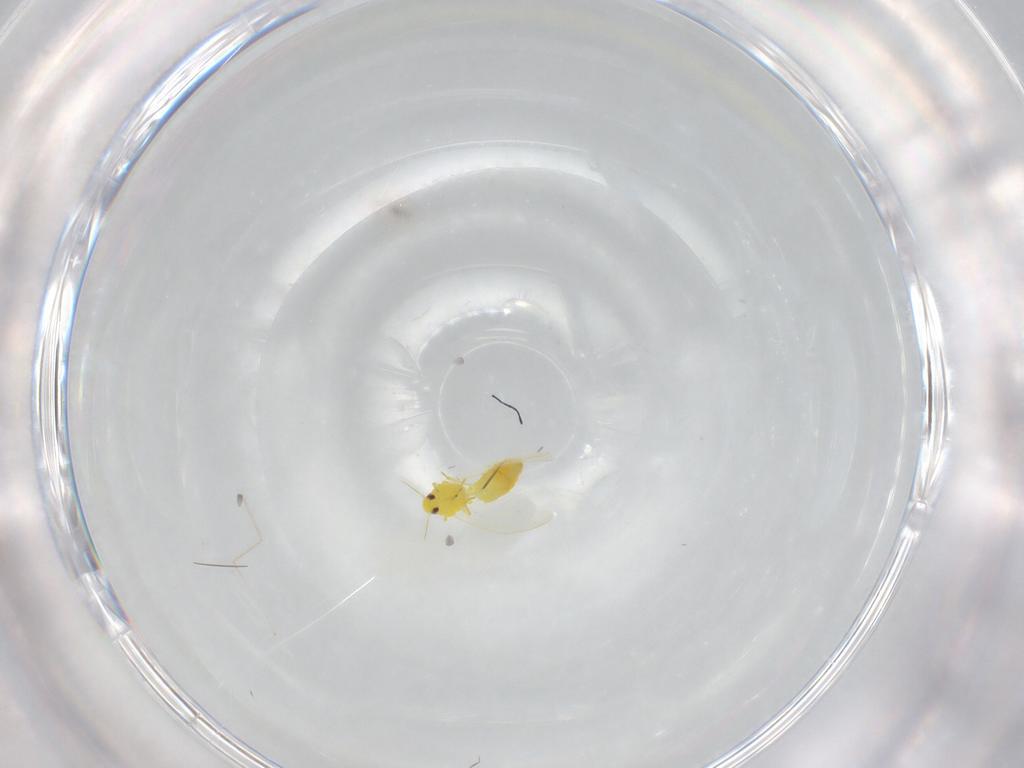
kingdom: Animalia
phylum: Arthropoda
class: Insecta
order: Hemiptera
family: Aleyrodidae
